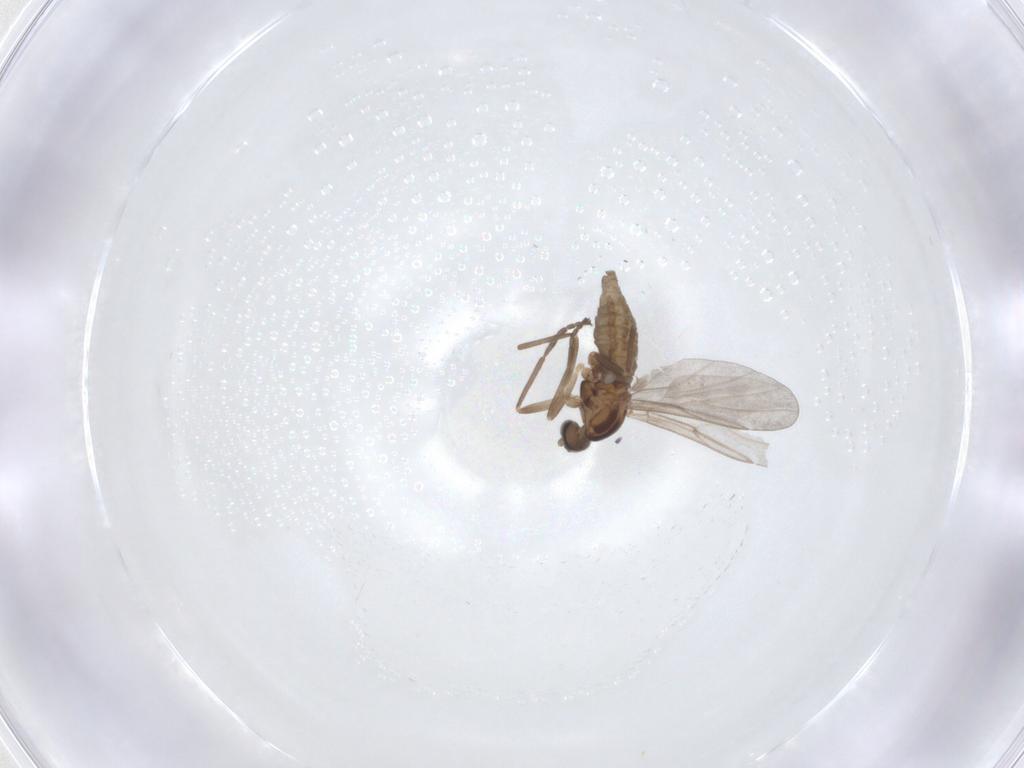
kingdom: Animalia
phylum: Arthropoda
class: Insecta
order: Diptera
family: Cecidomyiidae
